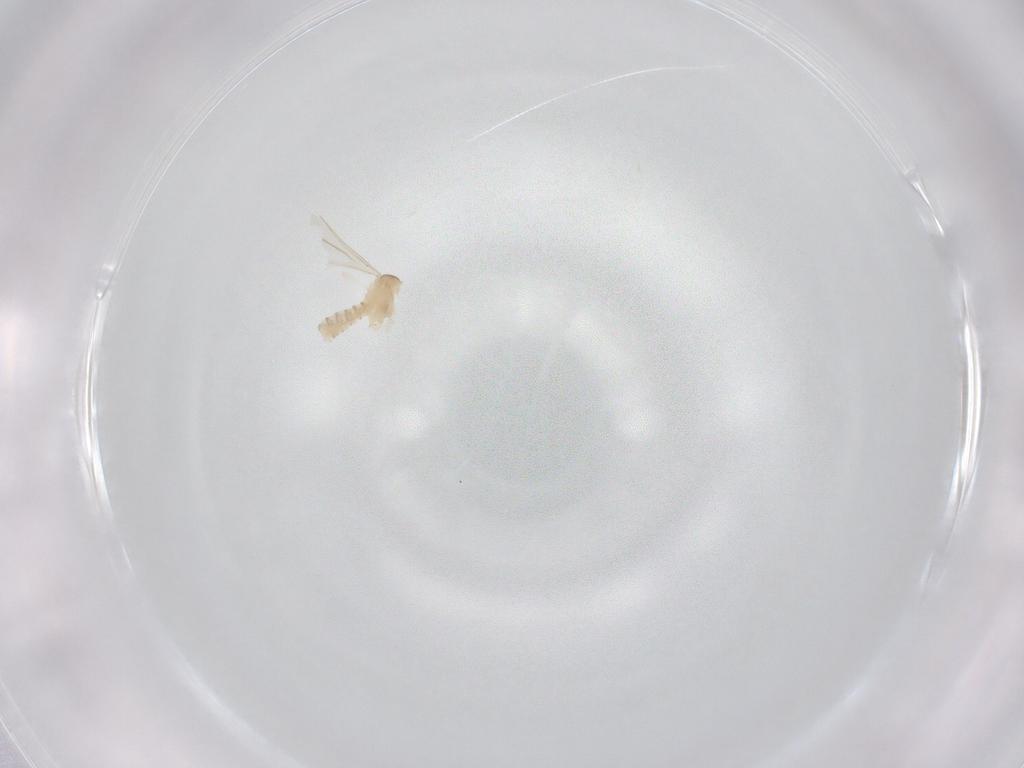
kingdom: Animalia
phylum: Arthropoda
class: Insecta
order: Diptera
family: Cecidomyiidae
